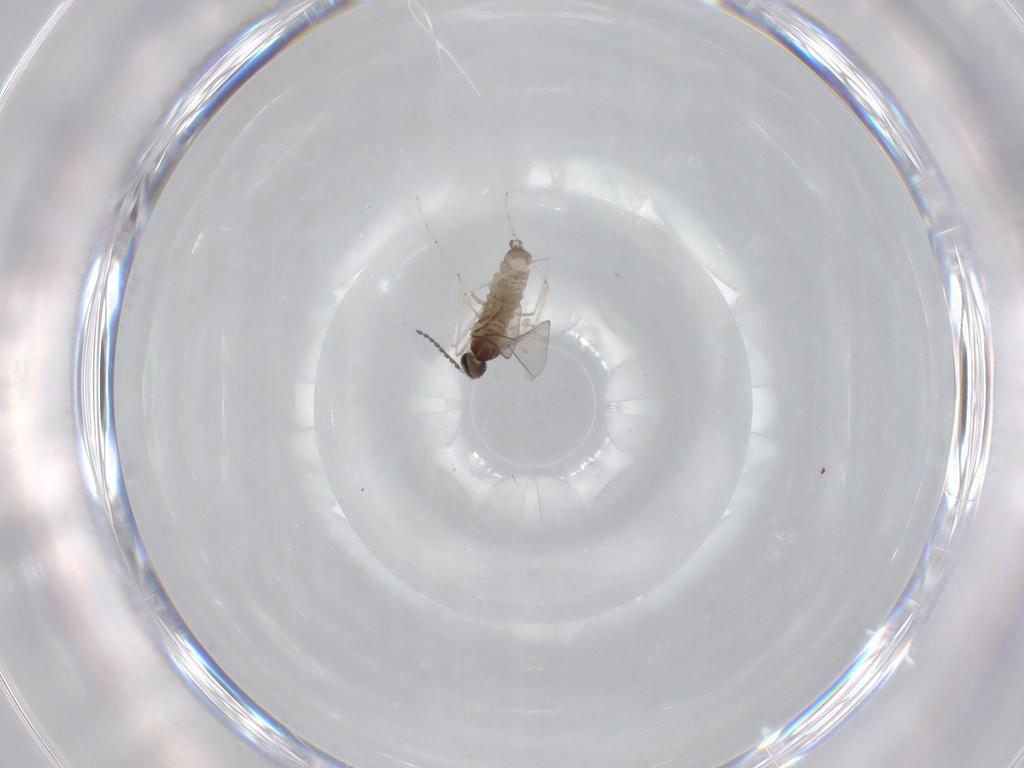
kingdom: Animalia
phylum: Arthropoda
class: Insecta
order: Diptera
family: Cecidomyiidae
